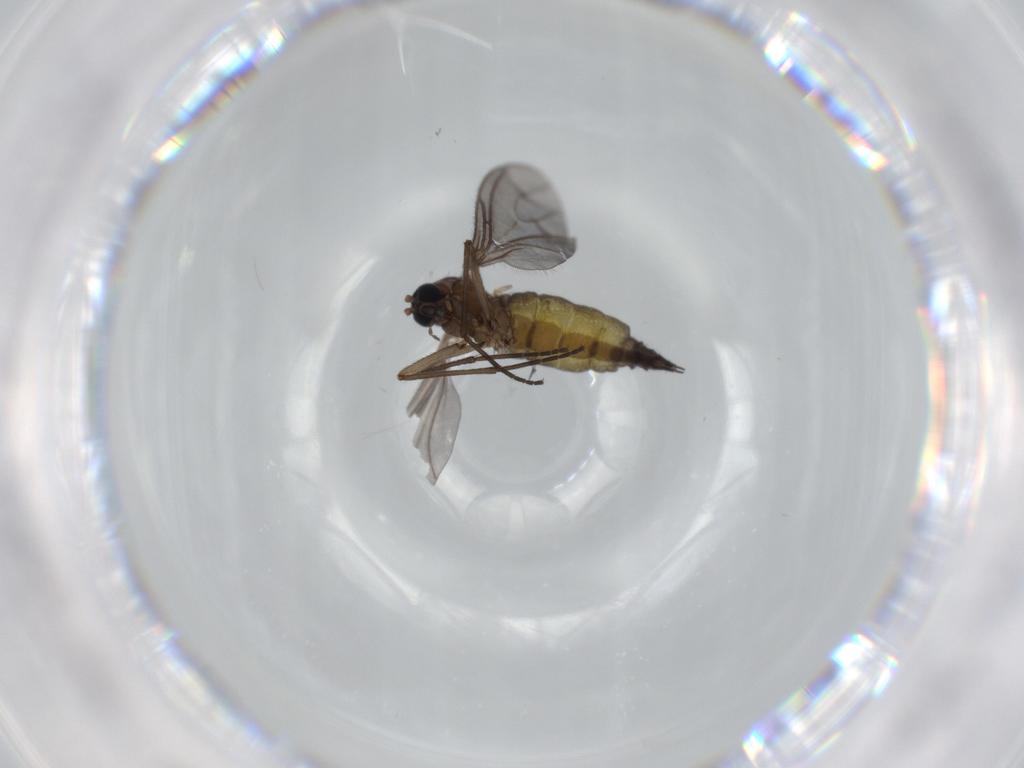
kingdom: Animalia
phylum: Arthropoda
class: Insecta
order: Diptera
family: Sciaridae
